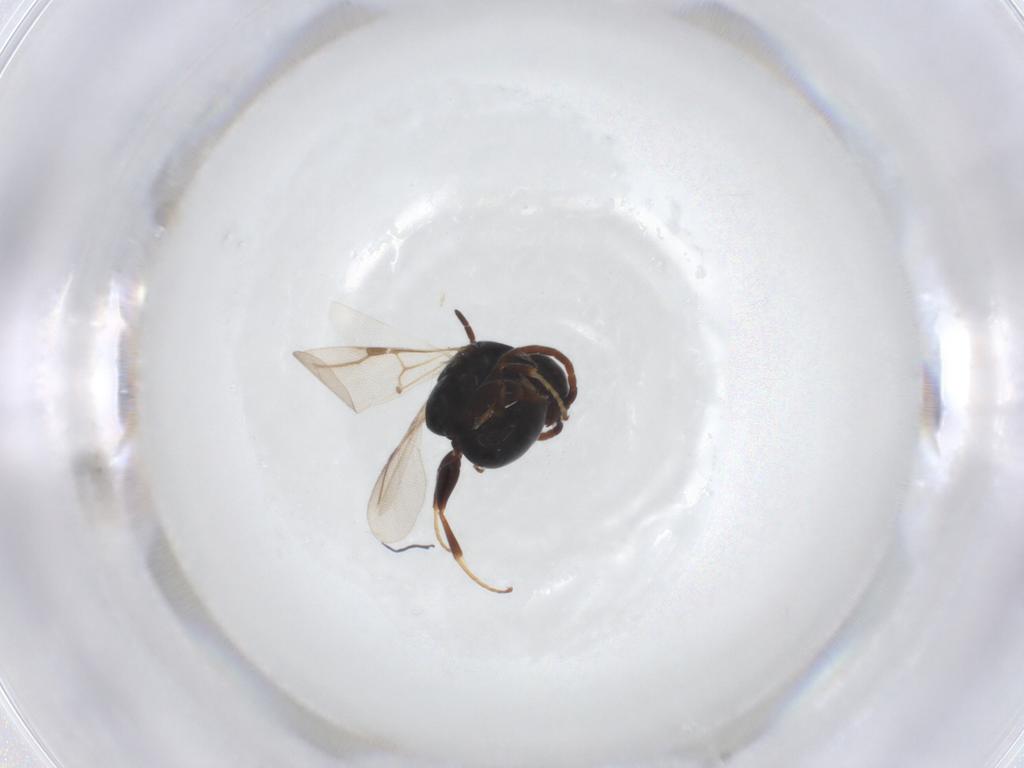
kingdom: Animalia
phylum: Arthropoda
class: Insecta
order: Hymenoptera
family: Bethylidae
